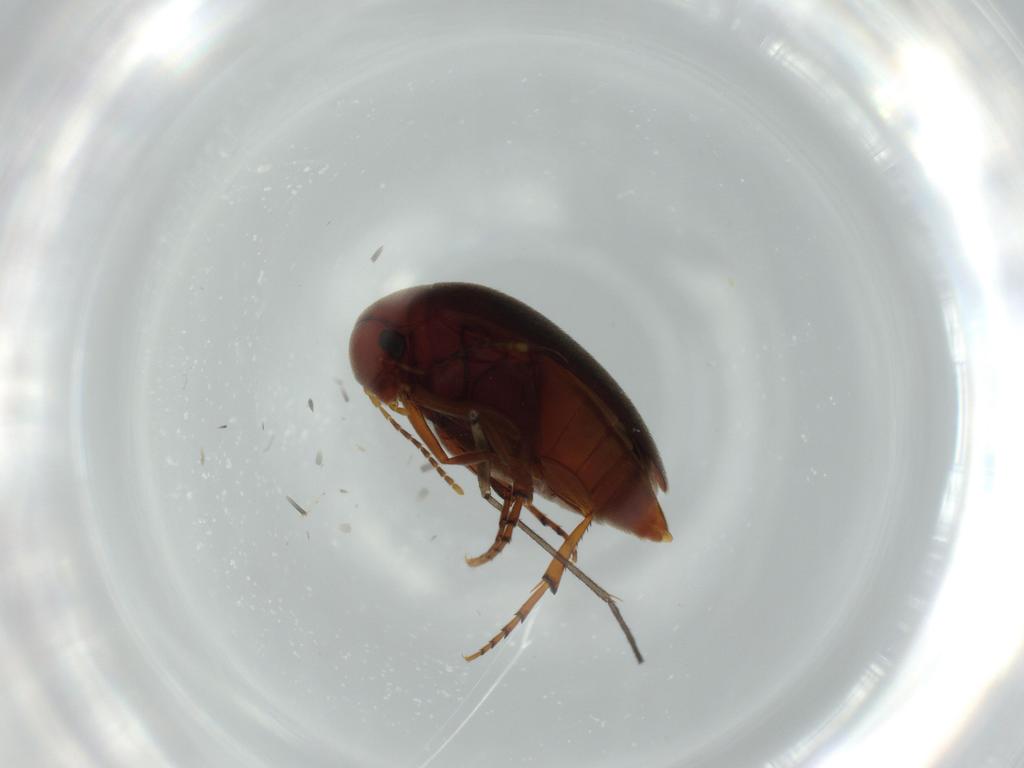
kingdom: Animalia
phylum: Arthropoda
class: Insecta
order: Coleoptera
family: Eucinetidae
